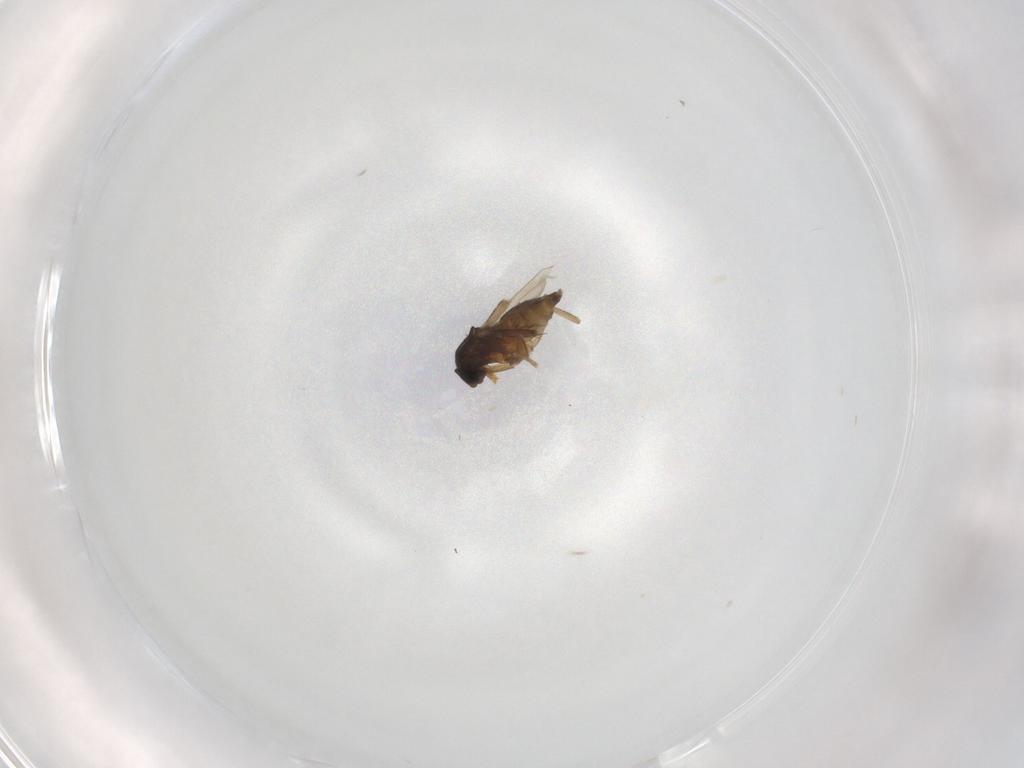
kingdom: Animalia
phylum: Arthropoda
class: Insecta
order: Diptera
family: Phoridae
